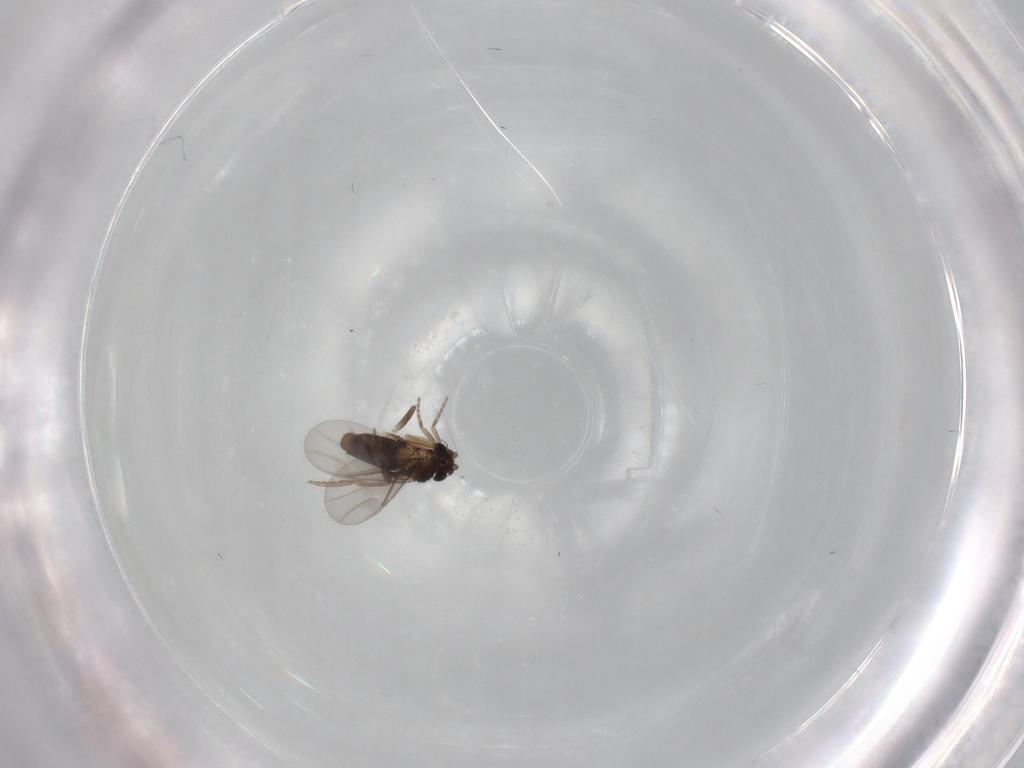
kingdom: Animalia
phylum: Arthropoda
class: Insecta
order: Diptera
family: Phoridae
